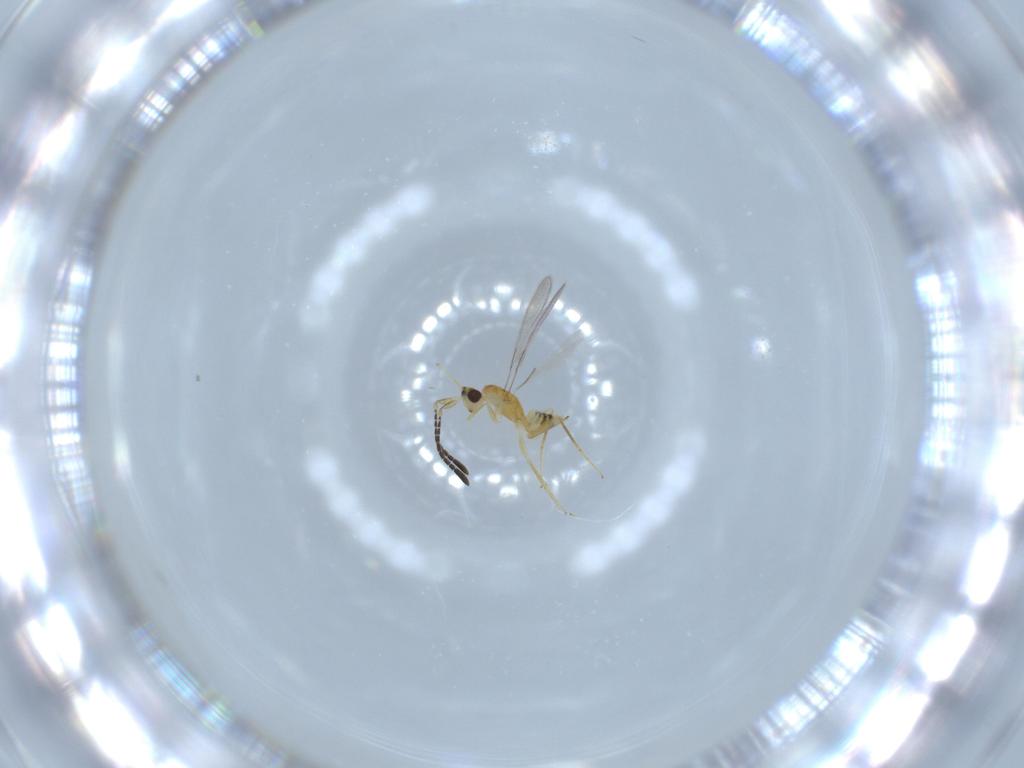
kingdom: Animalia
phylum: Arthropoda
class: Insecta
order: Hymenoptera
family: Mymaridae
